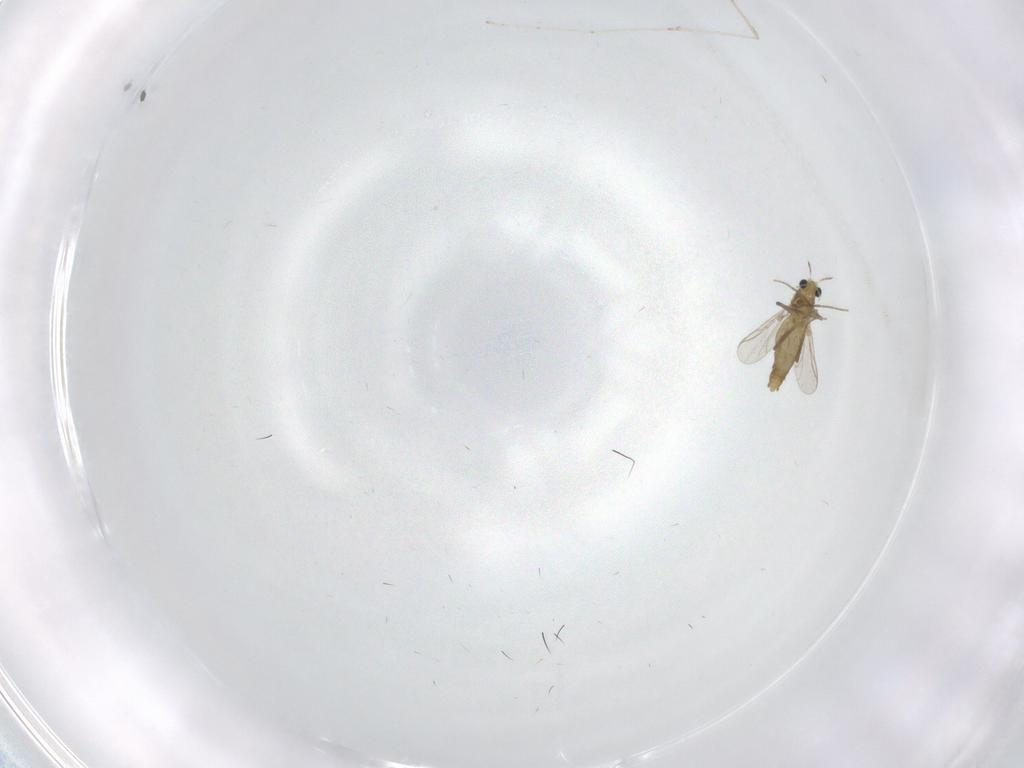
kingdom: Animalia
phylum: Arthropoda
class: Insecta
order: Diptera
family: Chironomidae
